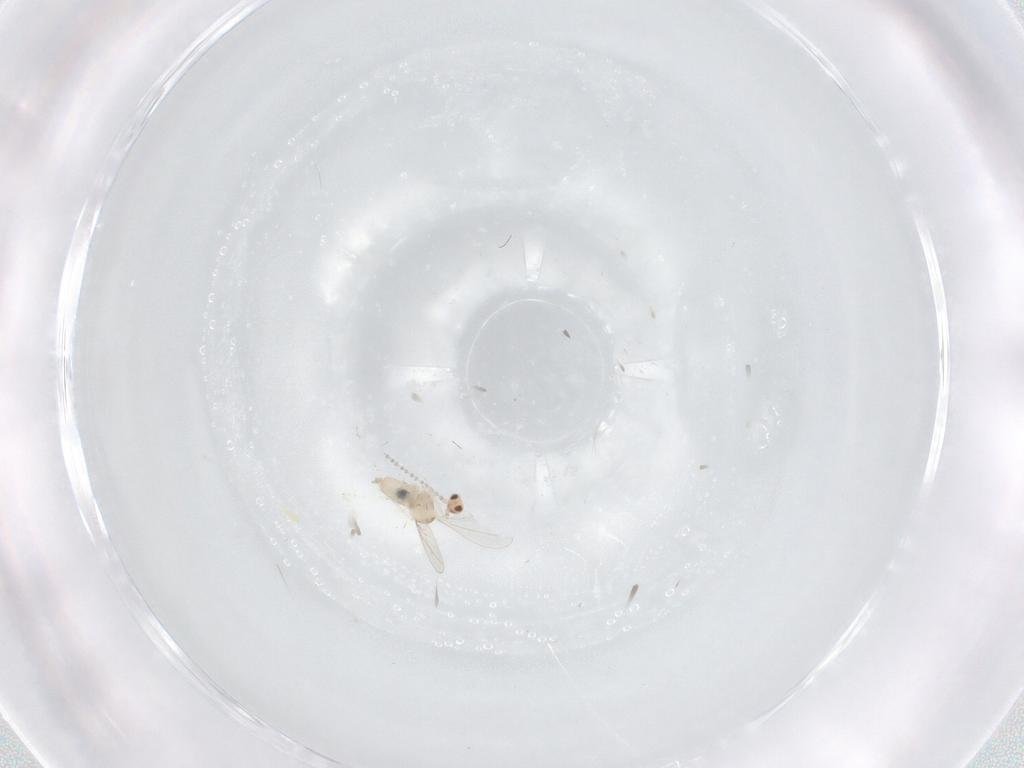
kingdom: Animalia
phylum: Arthropoda
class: Insecta
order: Diptera
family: Cecidomyiidae
